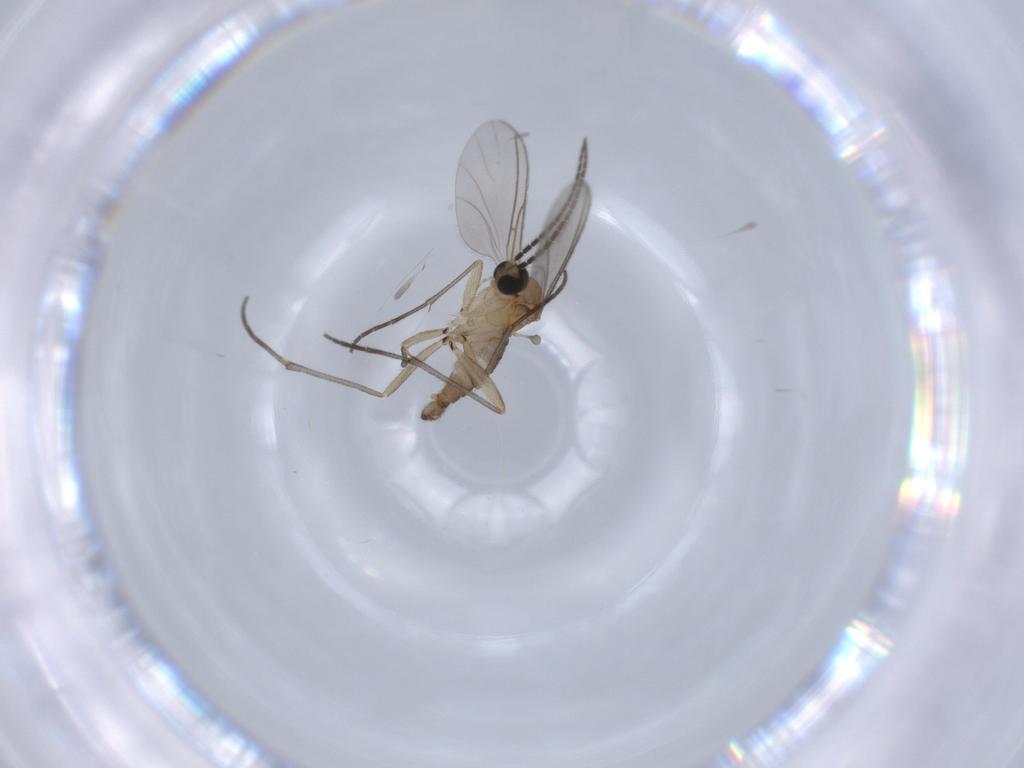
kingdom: Animalia
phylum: Arthropoda
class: Insecta
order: Diptera
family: Sciaridae
